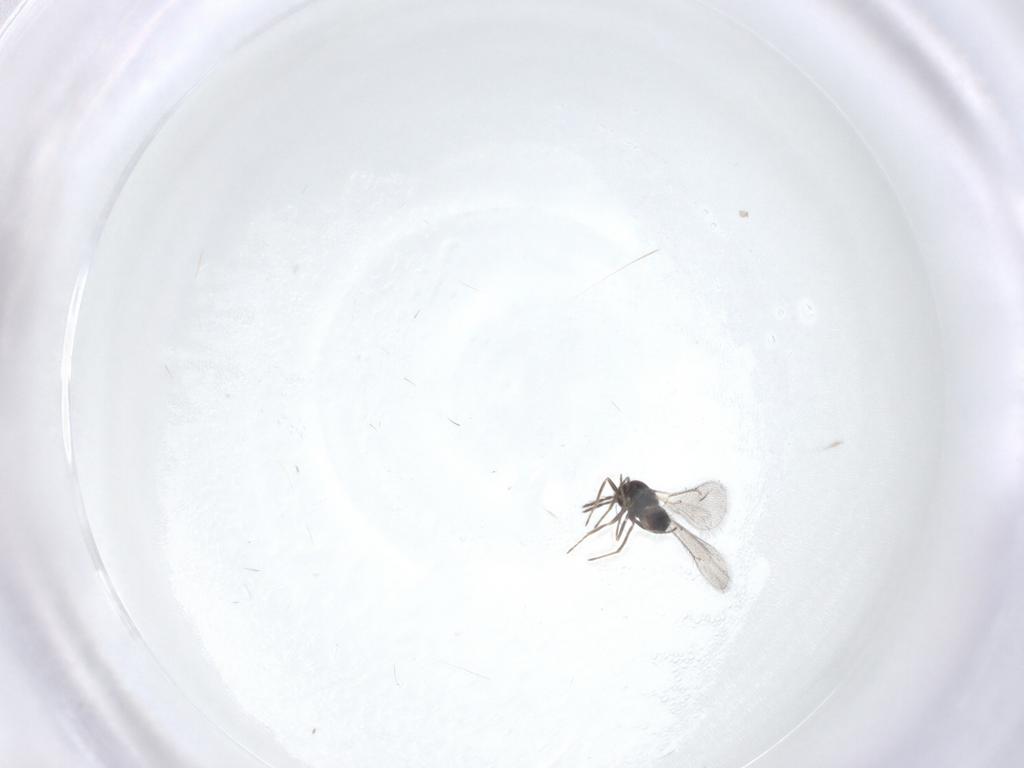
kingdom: Animalia
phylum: Arthropoda
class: Insecta
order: Hymenoptera
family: Eulophidae
